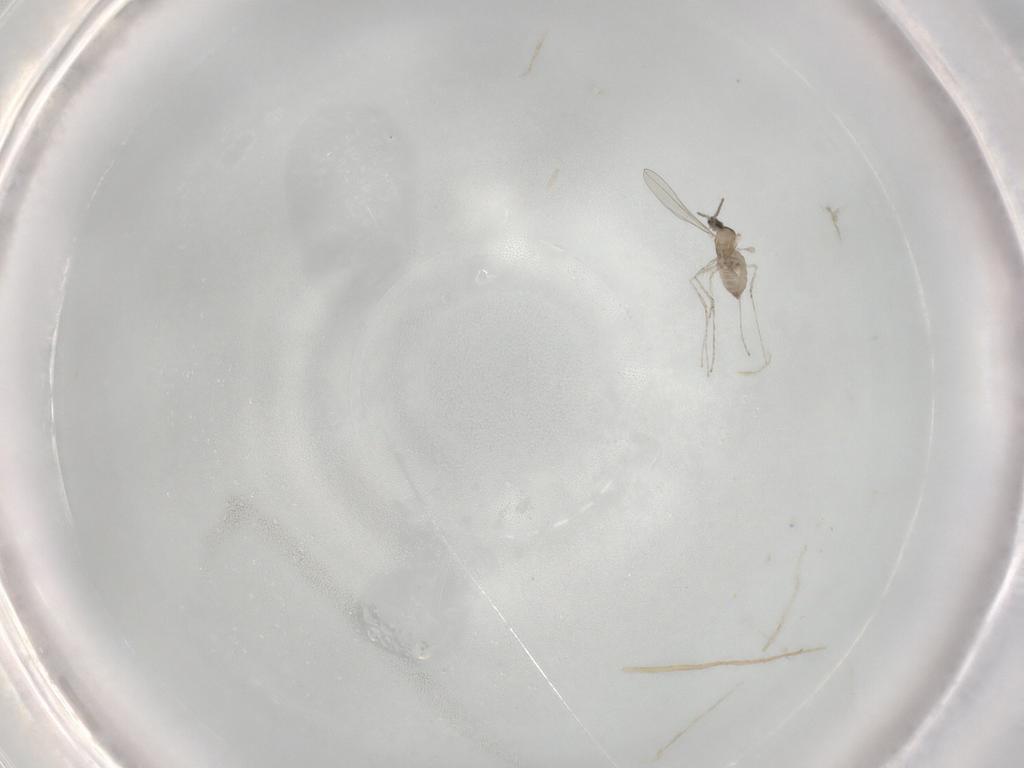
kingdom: Animalia
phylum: Arthropoda
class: Insecta
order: Diptera
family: Cecidomyiidae
